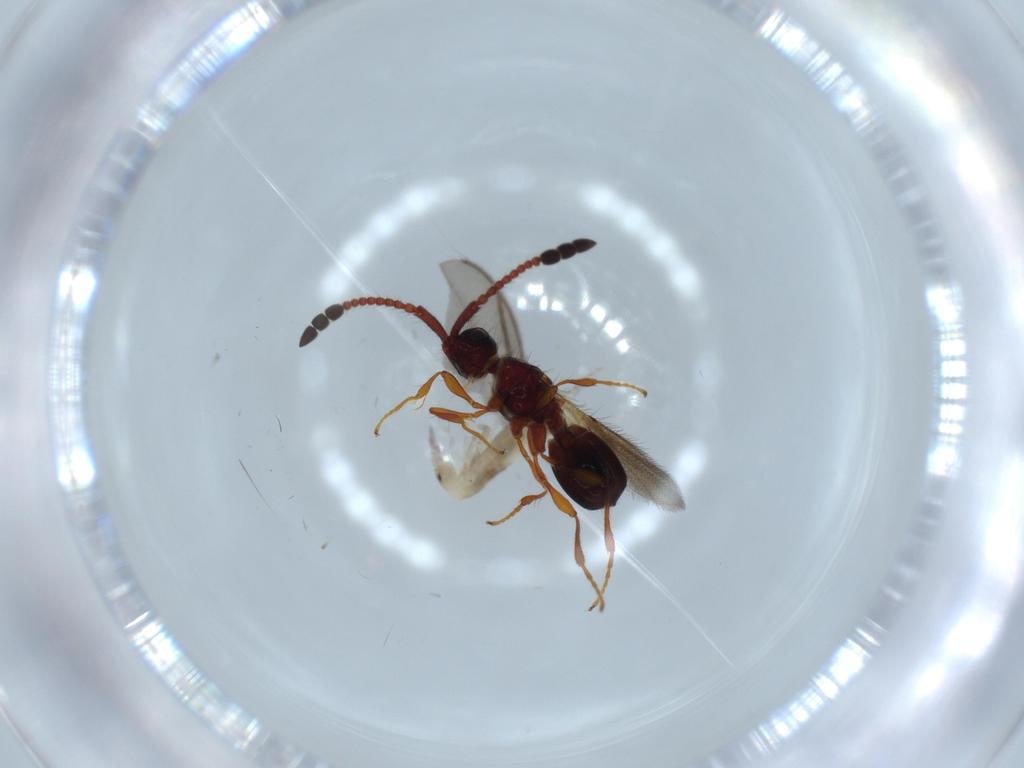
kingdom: Animalia
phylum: Arthropoda
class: Collembola
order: Entomobryomorpha
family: Entomobryidae
